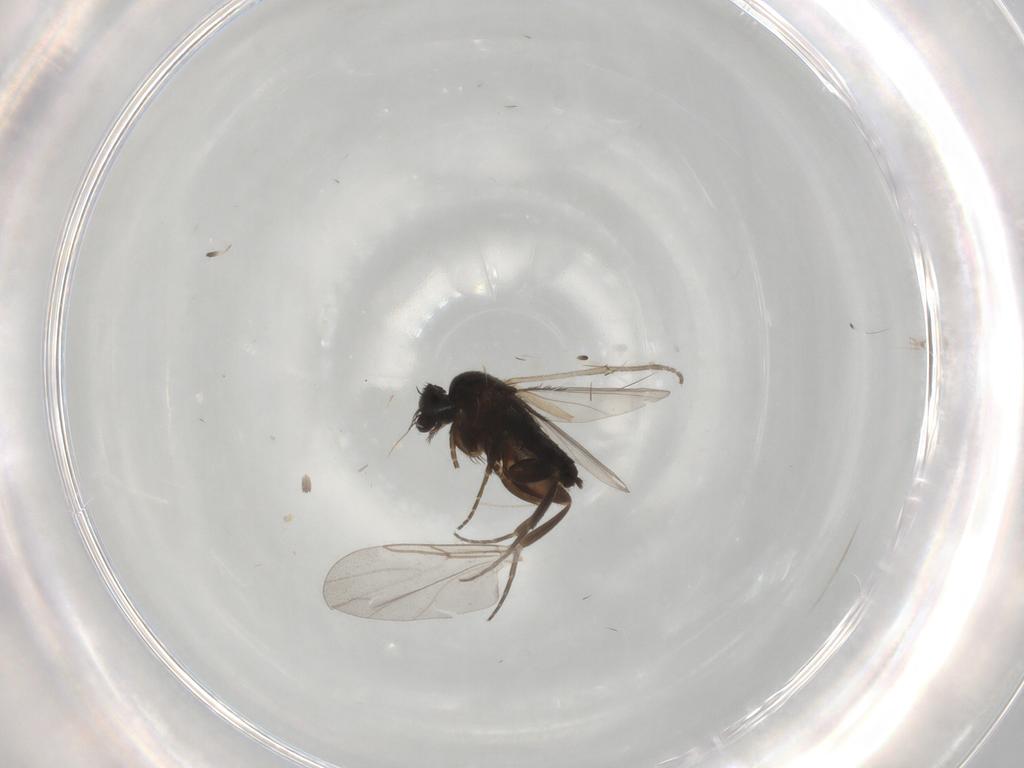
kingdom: Animalia
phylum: Arthropoda
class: Insecta
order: Diptera
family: Phoridae
